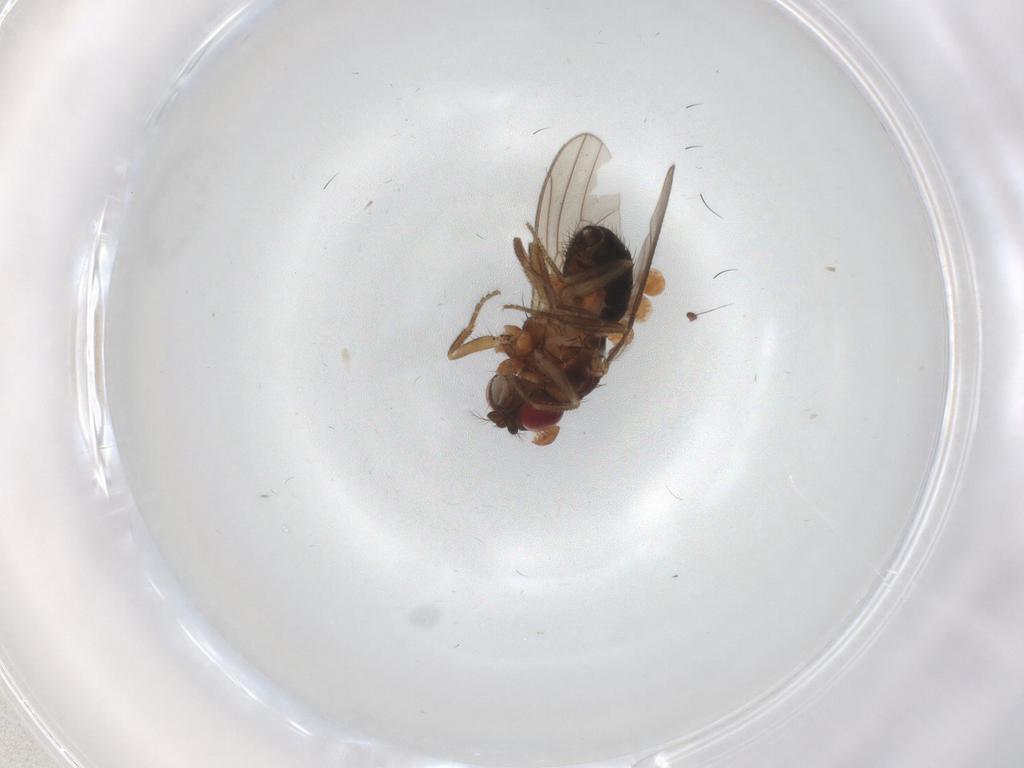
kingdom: Animalia
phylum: Arthropoda
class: Insecta
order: Diptera
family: Drosophilidae
